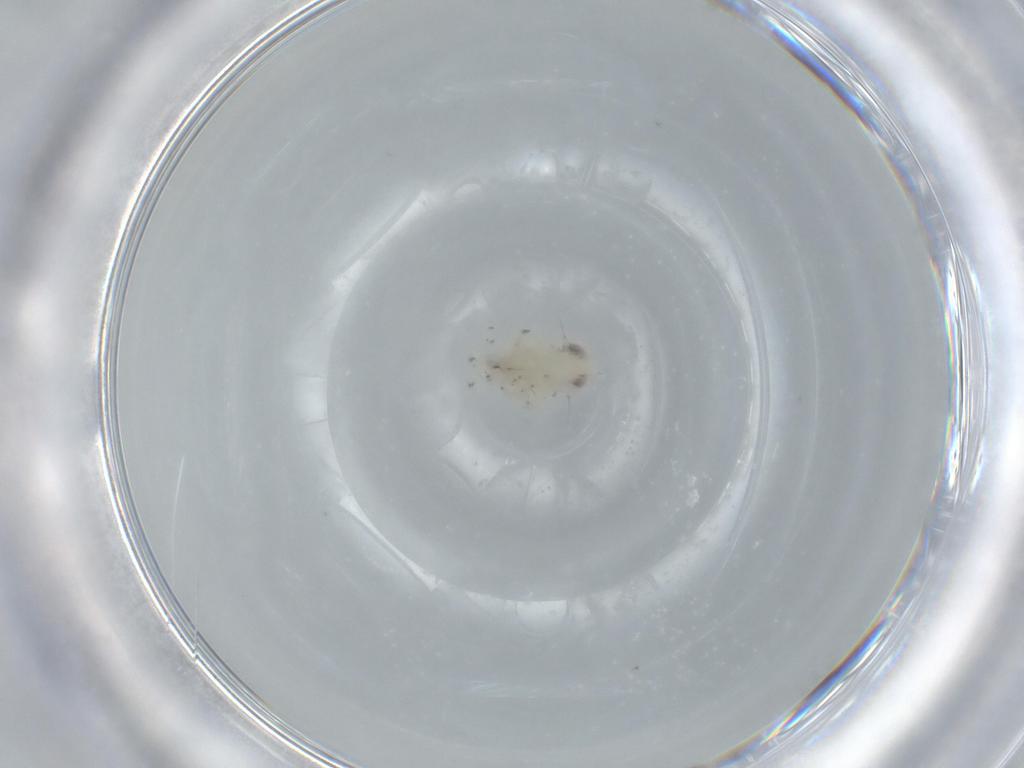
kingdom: Animalia
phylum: Arthropoda
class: Insecta
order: Hemiptera
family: Nogodinidae
